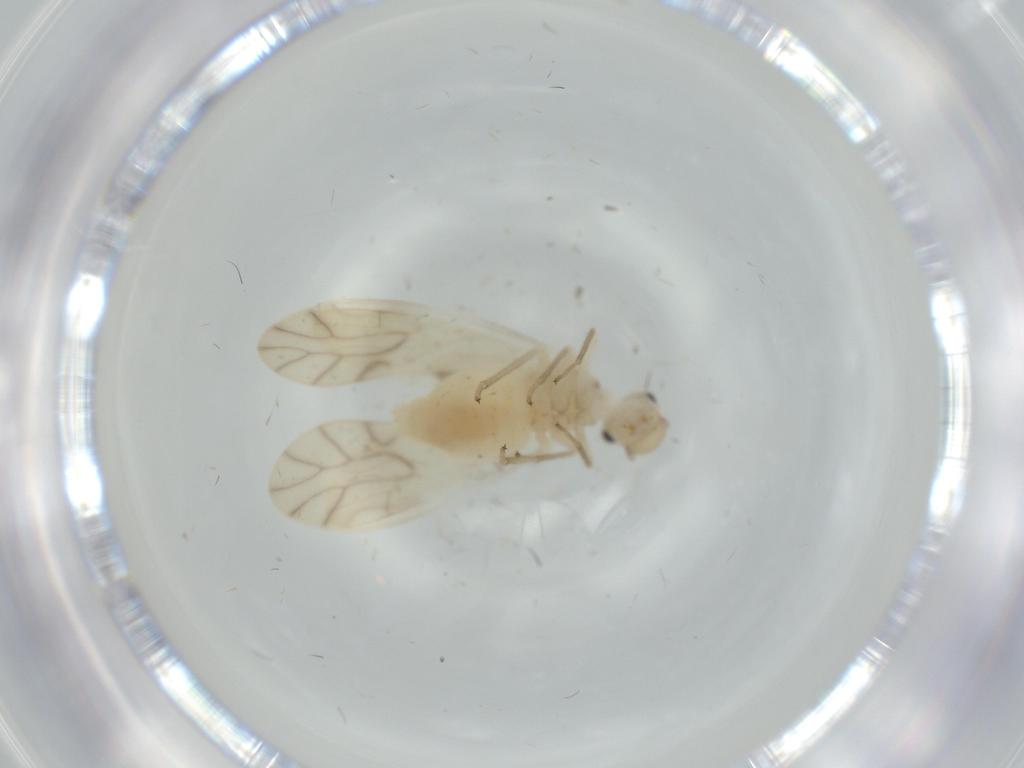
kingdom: Animalia
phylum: Arthropoda
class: Insecta
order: Psocodea
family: Caeciliusidae
